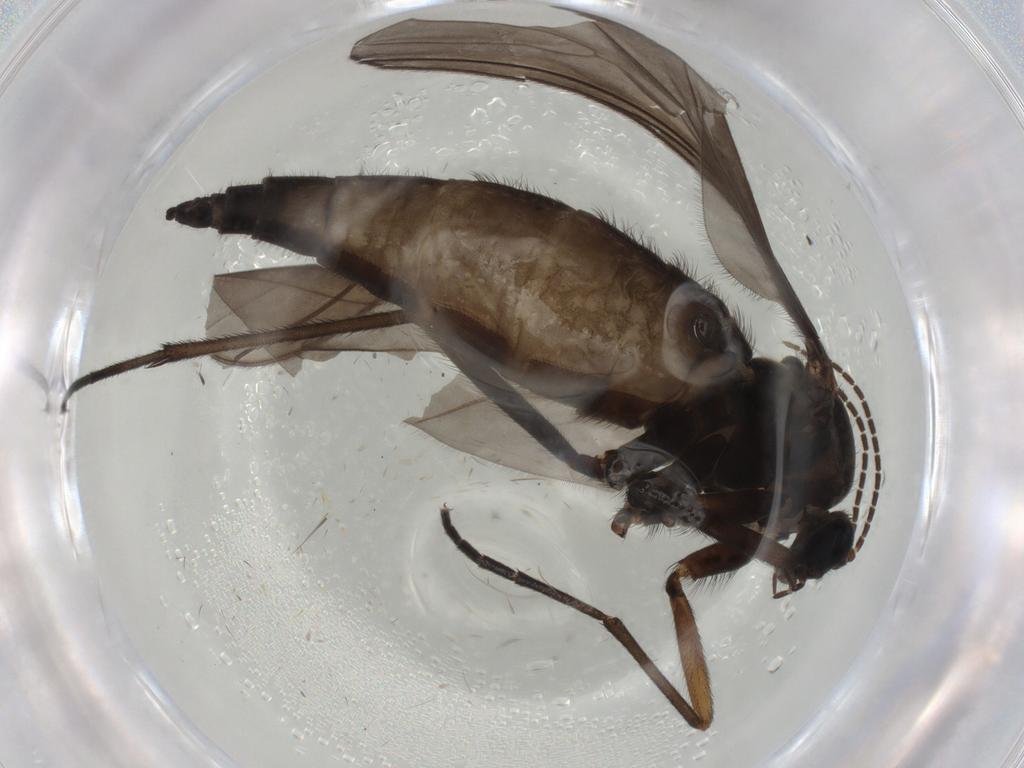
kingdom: Animalia
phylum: Arthropoda
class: Insecta
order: Diptera
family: Sciaridae
